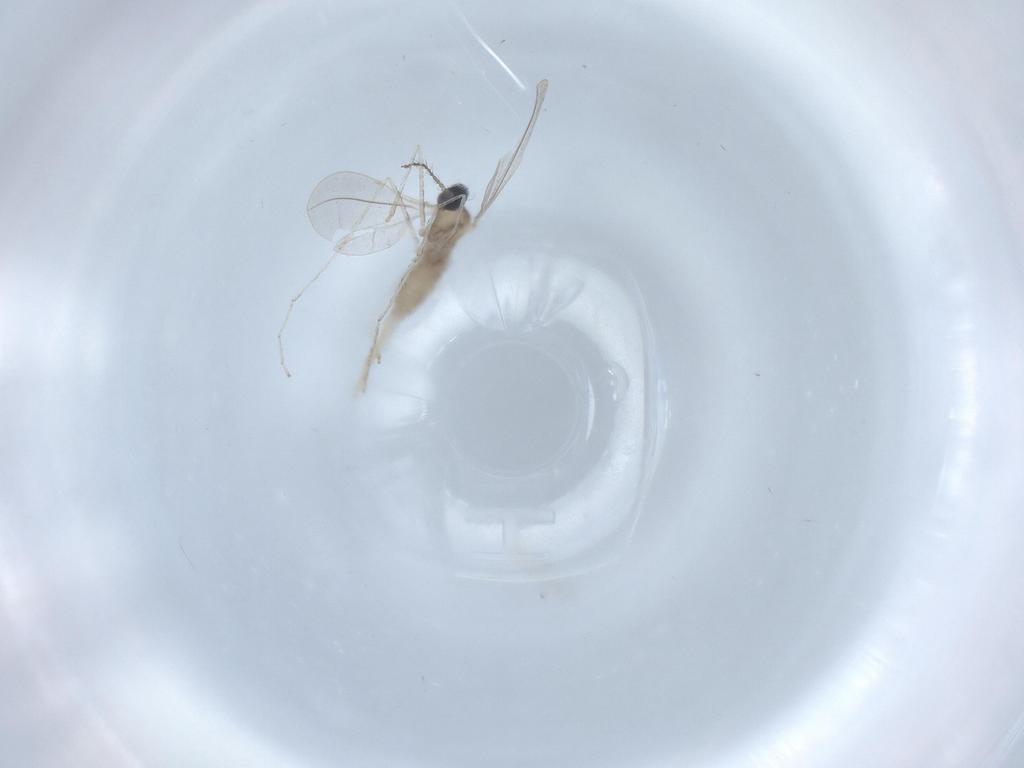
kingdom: Animalia
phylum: Arthropoda
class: Insecta
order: Diptera
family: Cecidomyiidae
